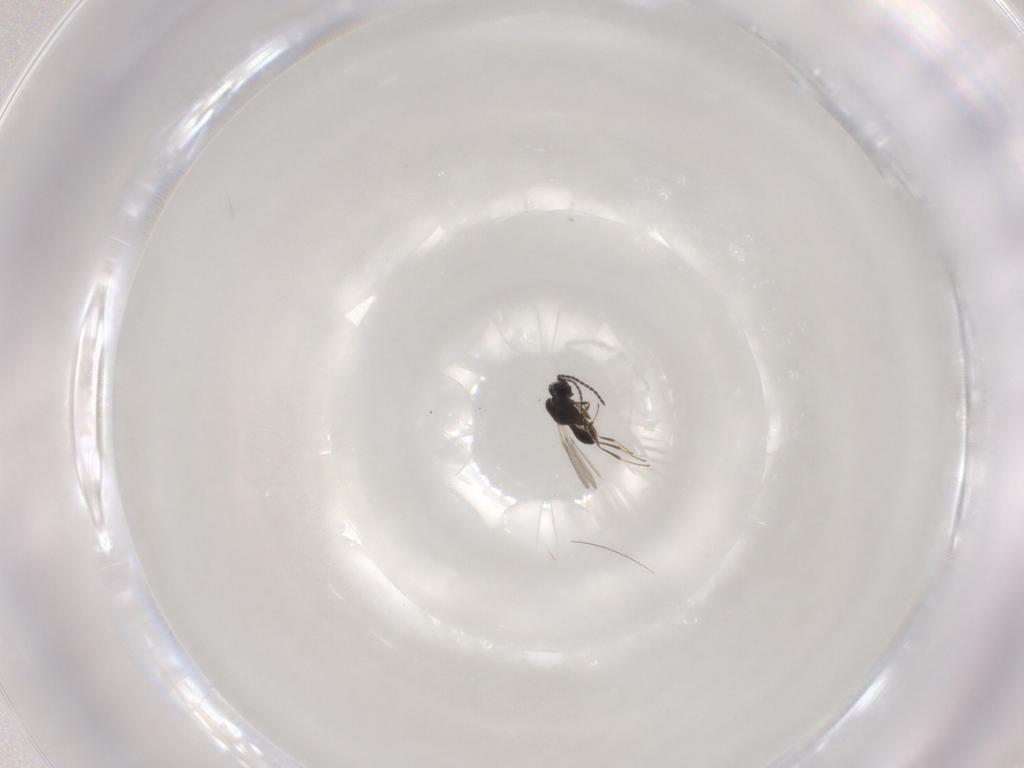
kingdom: Animalia
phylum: Arthropoda
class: Insecta
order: Hymenoptera
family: Scelionidae
